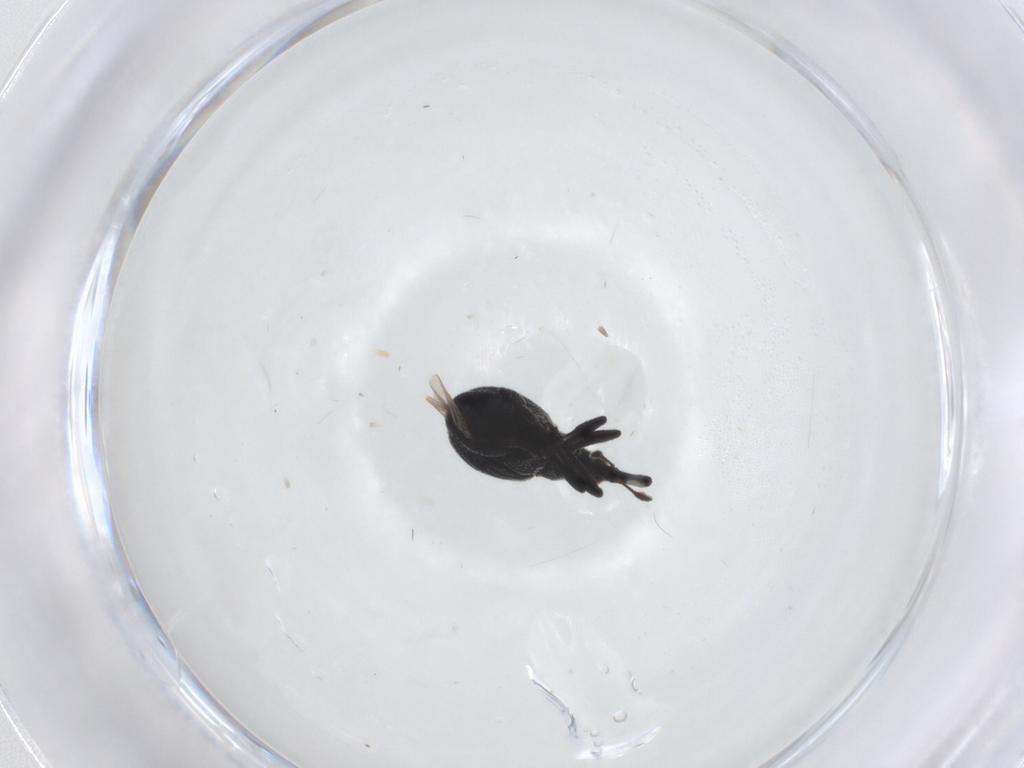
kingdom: Animalia
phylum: Arthropoda
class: Insecta
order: Coleoptera
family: Brentidae
